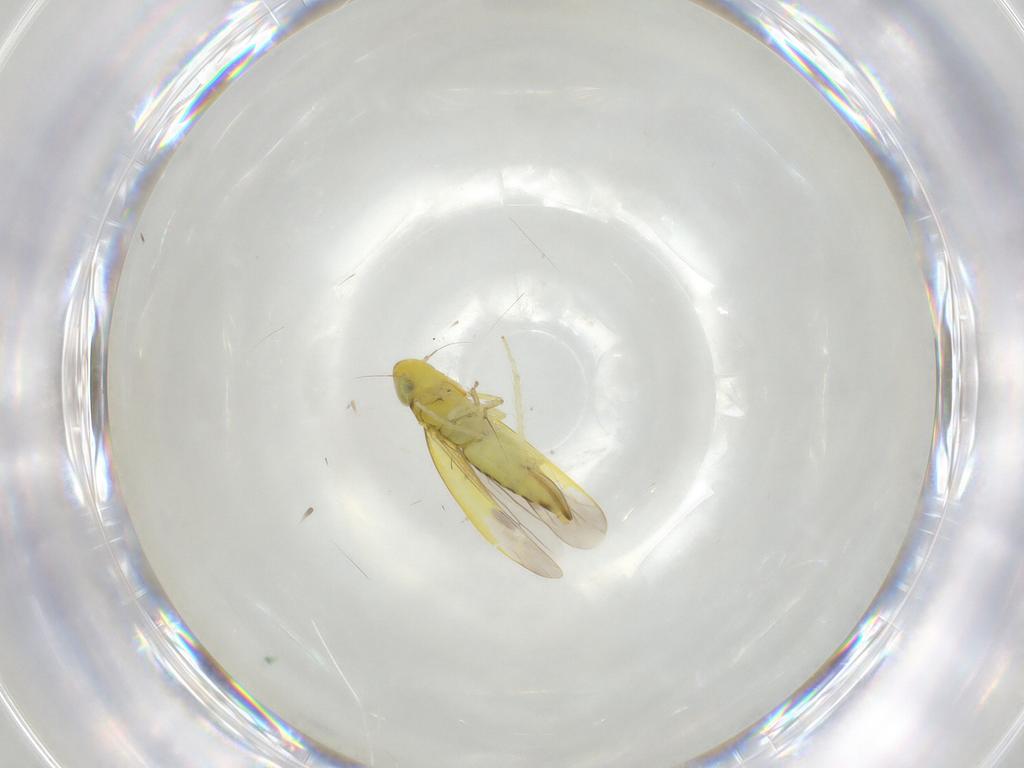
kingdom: Animalia
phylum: Arthropoda
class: Insecta
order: Hemiptera
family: Cicadellidae
